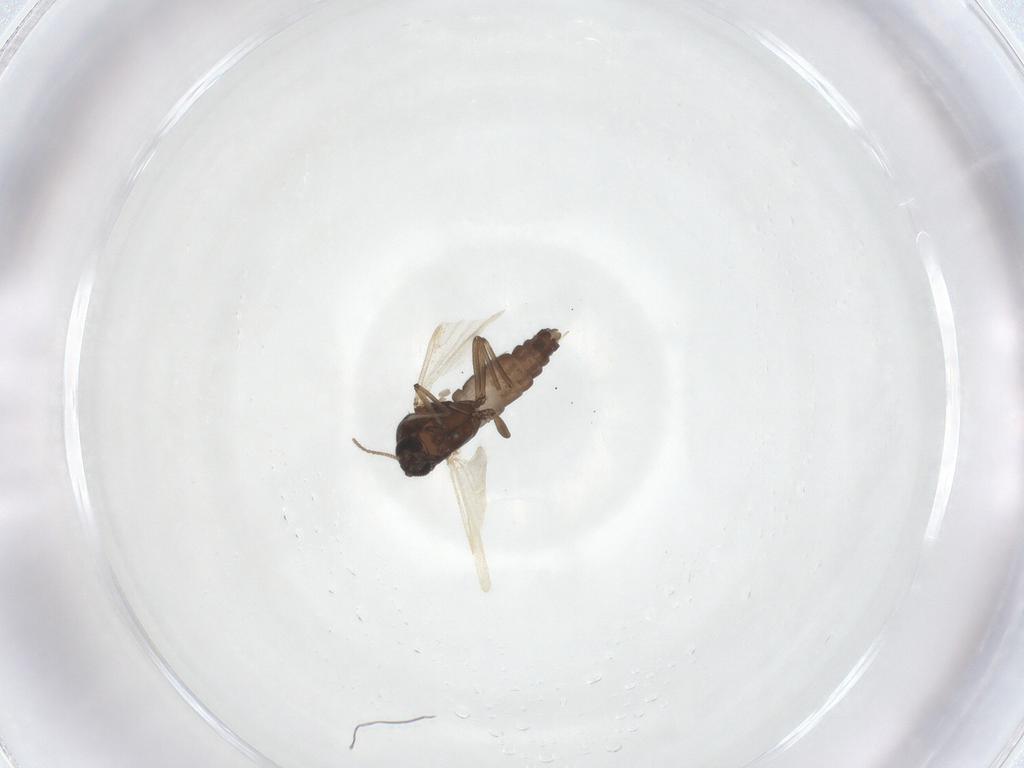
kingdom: Animalia
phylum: Arthropoda
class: Insecta
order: Diptera
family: Ceratopogonidae
